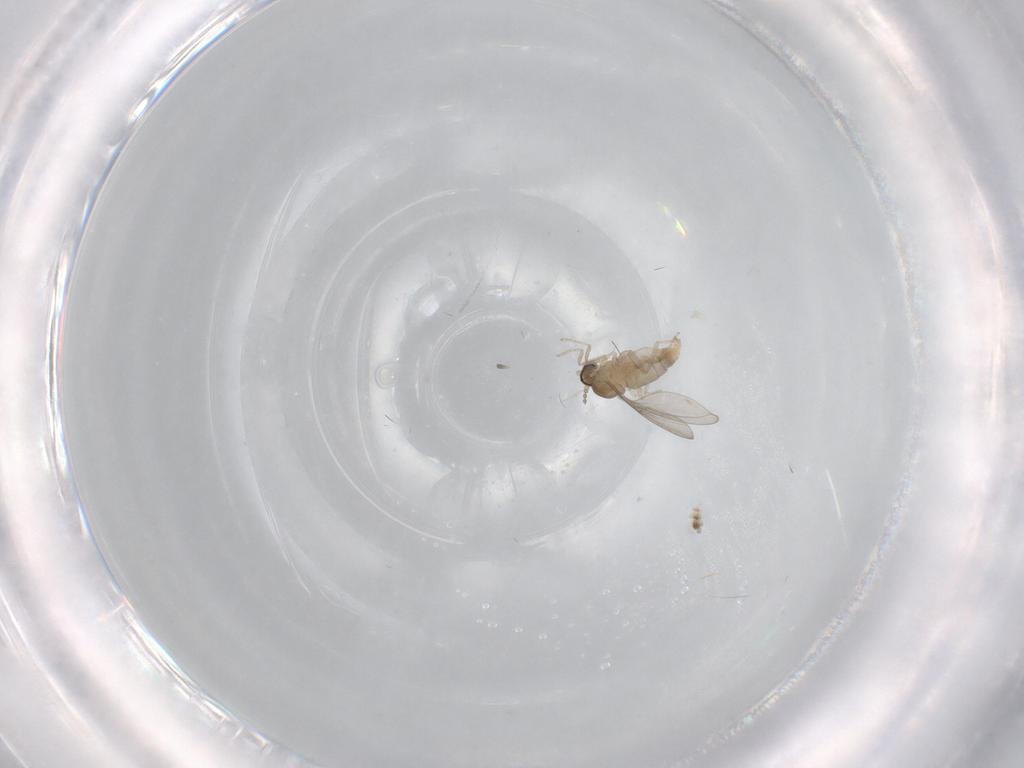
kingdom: Animalia
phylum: Arthropoda
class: Insecta
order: Diptera
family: Cecidomyiidae
